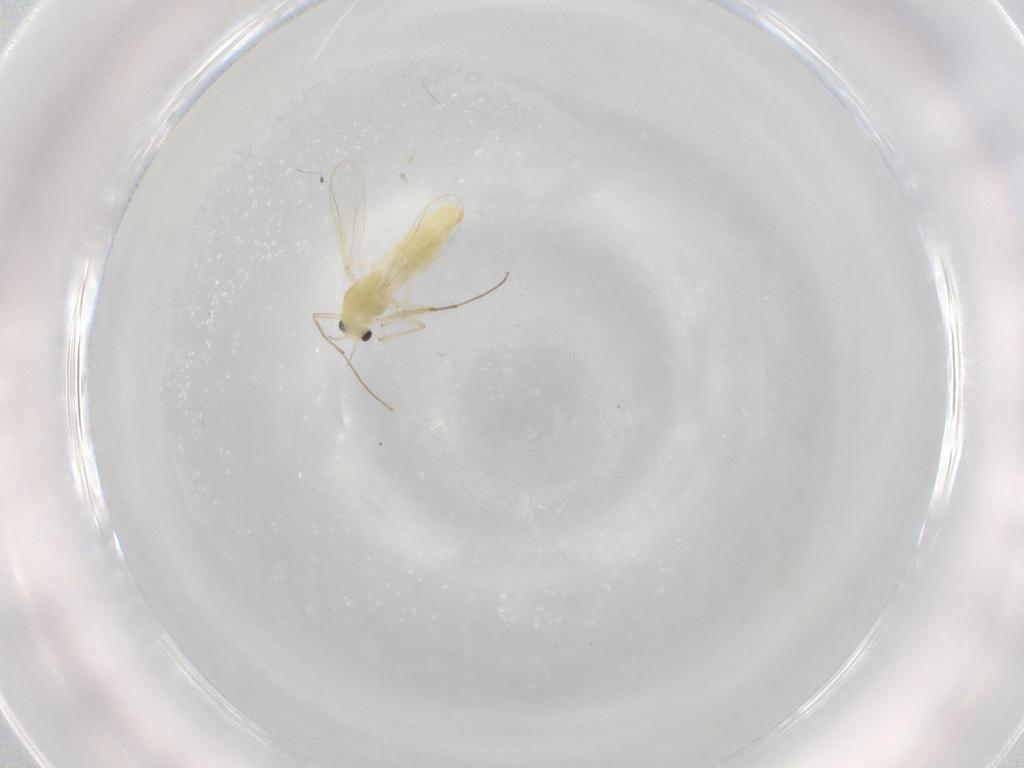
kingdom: Animalia
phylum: Arthropoda
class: Insecta
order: Diptera
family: Chironomidae
